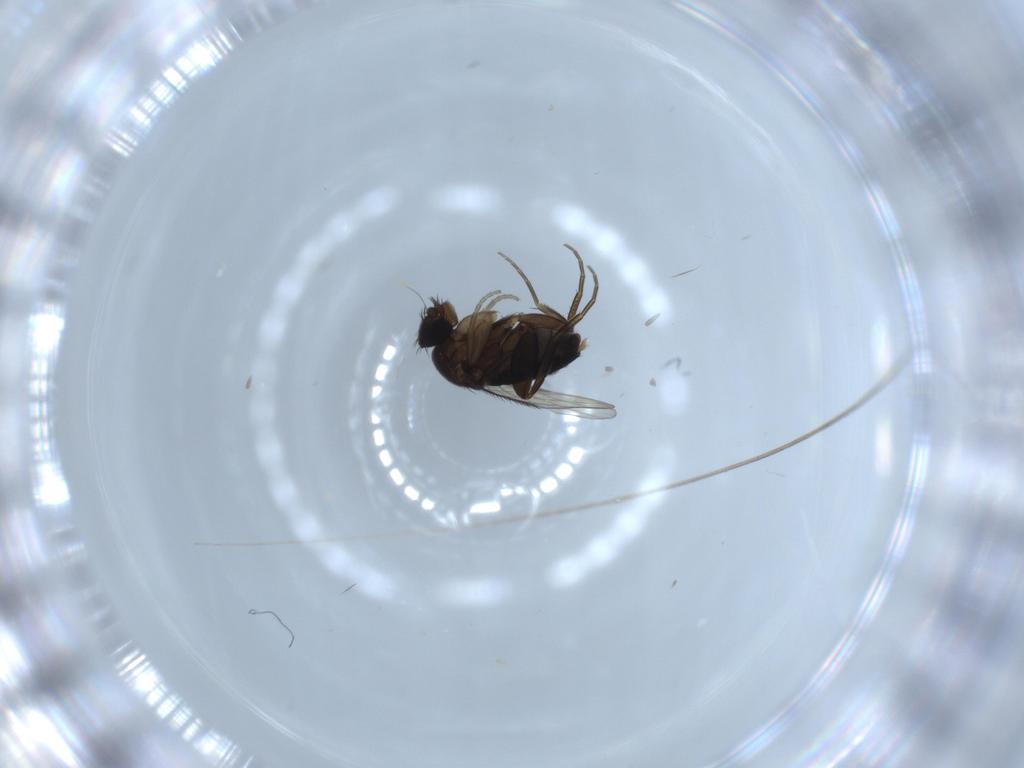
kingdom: Animalia
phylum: Arthropoda
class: Insecta
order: Diptera
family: Phoridae
